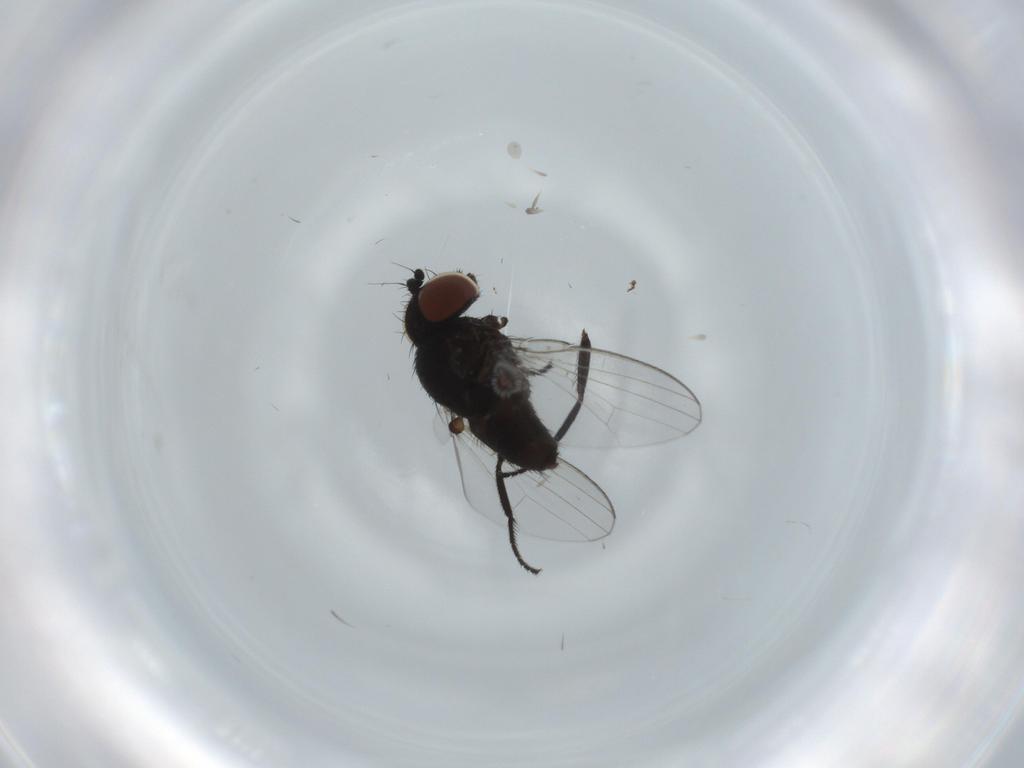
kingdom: Animalia
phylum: Arthropoda
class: Insecta
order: Diptera
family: Milichiidae
